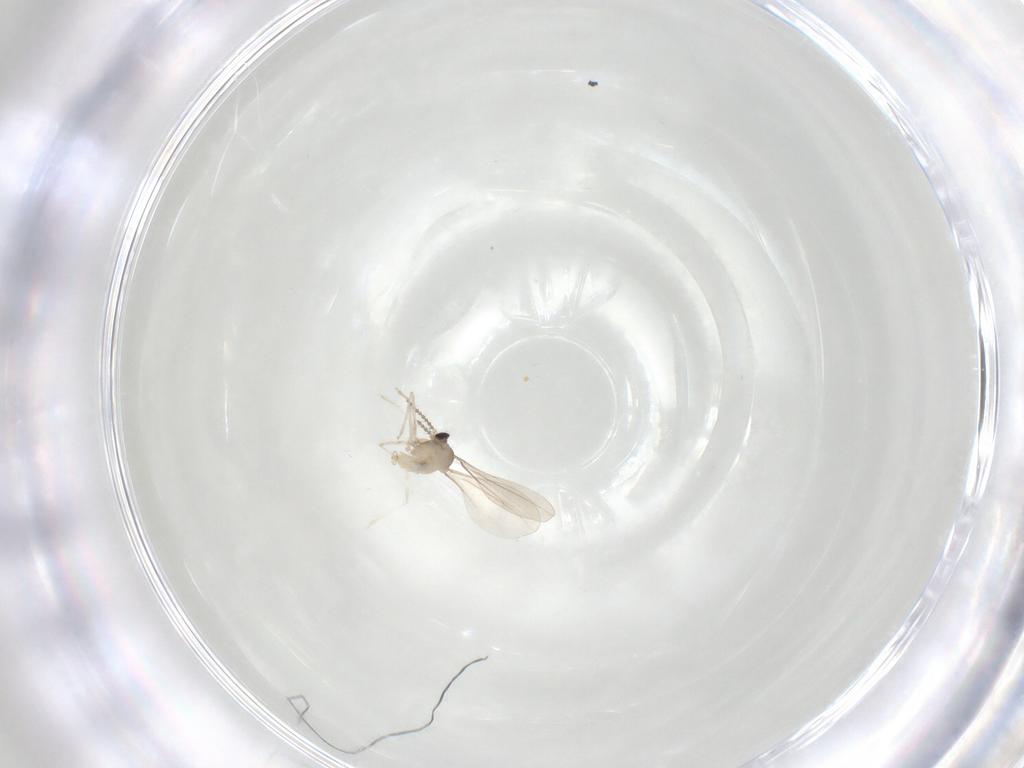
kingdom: Animalia
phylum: Arthropoda
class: Insecta
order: Diptera
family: Cecidomyiidae
